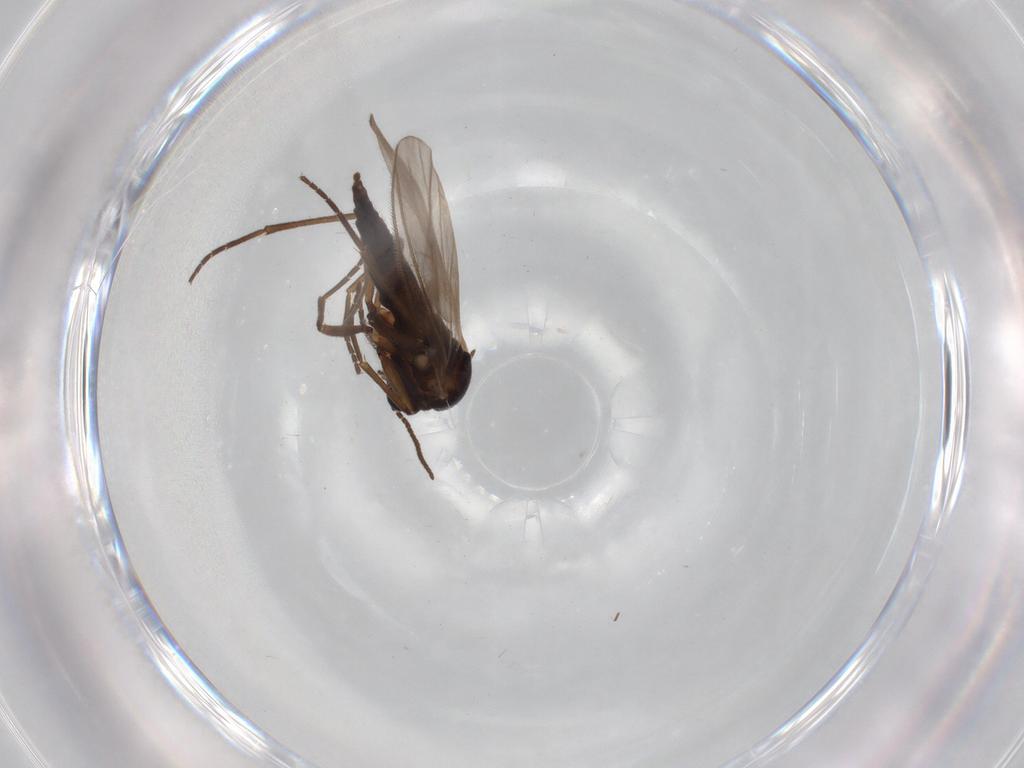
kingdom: Animalia
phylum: Arthropoda
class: Insecta
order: Diptera
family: Sciaridae
